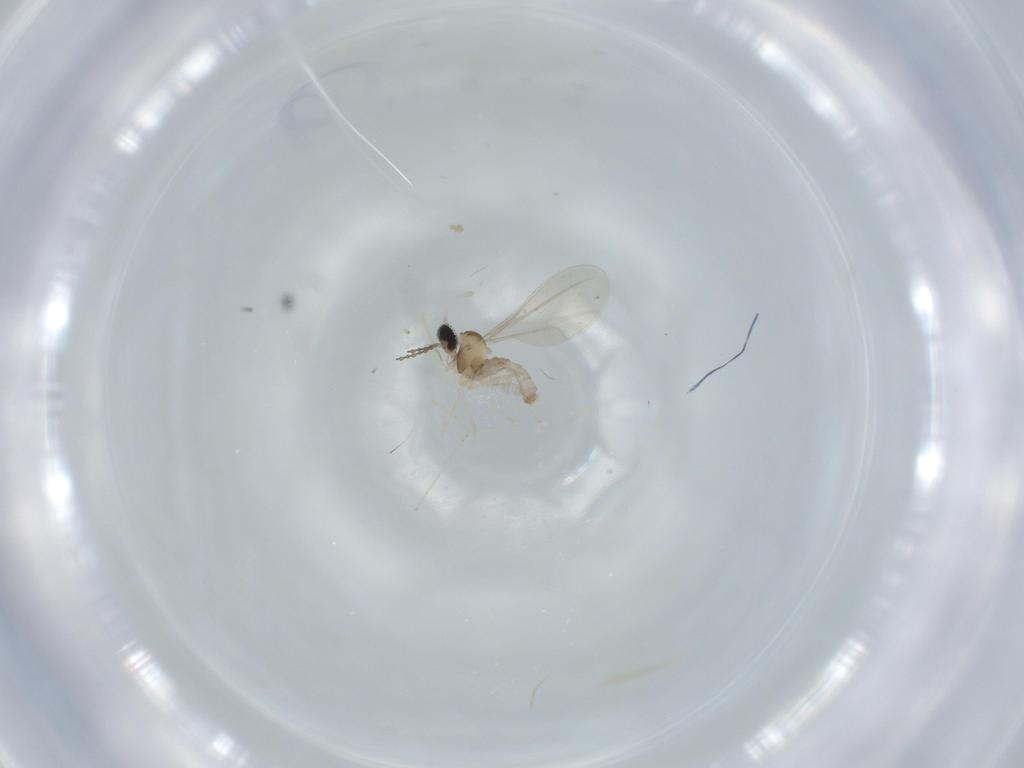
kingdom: Animalia
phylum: Arthropoda
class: Insecta
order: Diptera
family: Cecidomyiidae
